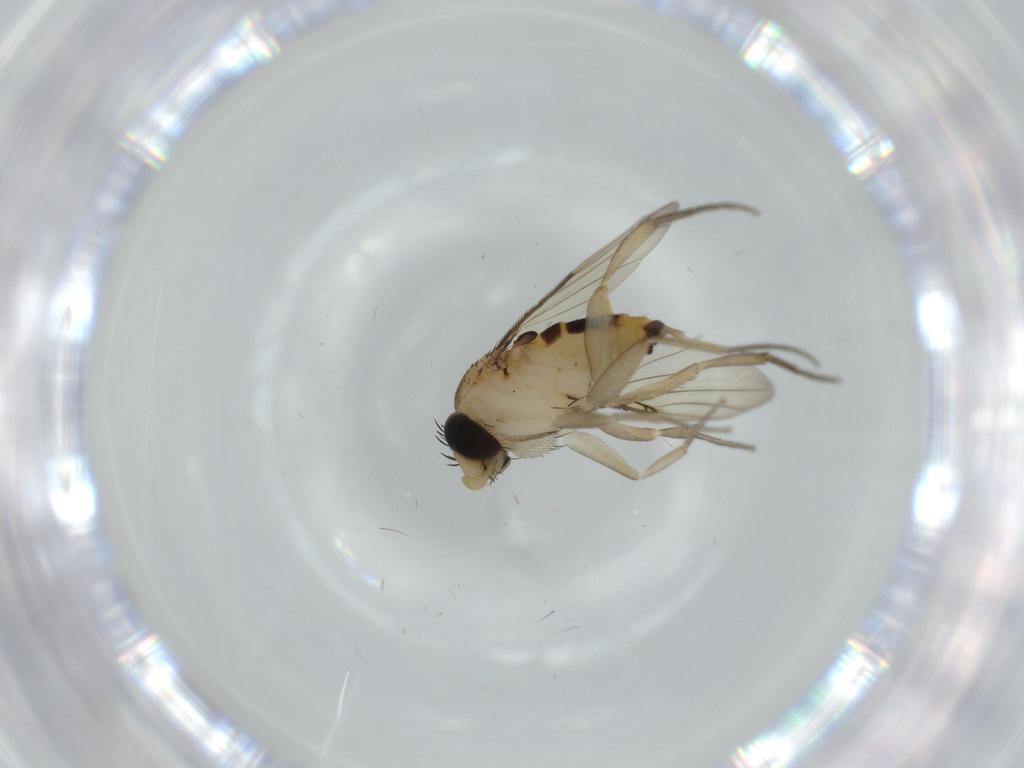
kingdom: Animalia
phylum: Arthropoda
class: Insecta
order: Diptera
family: Phoridae
